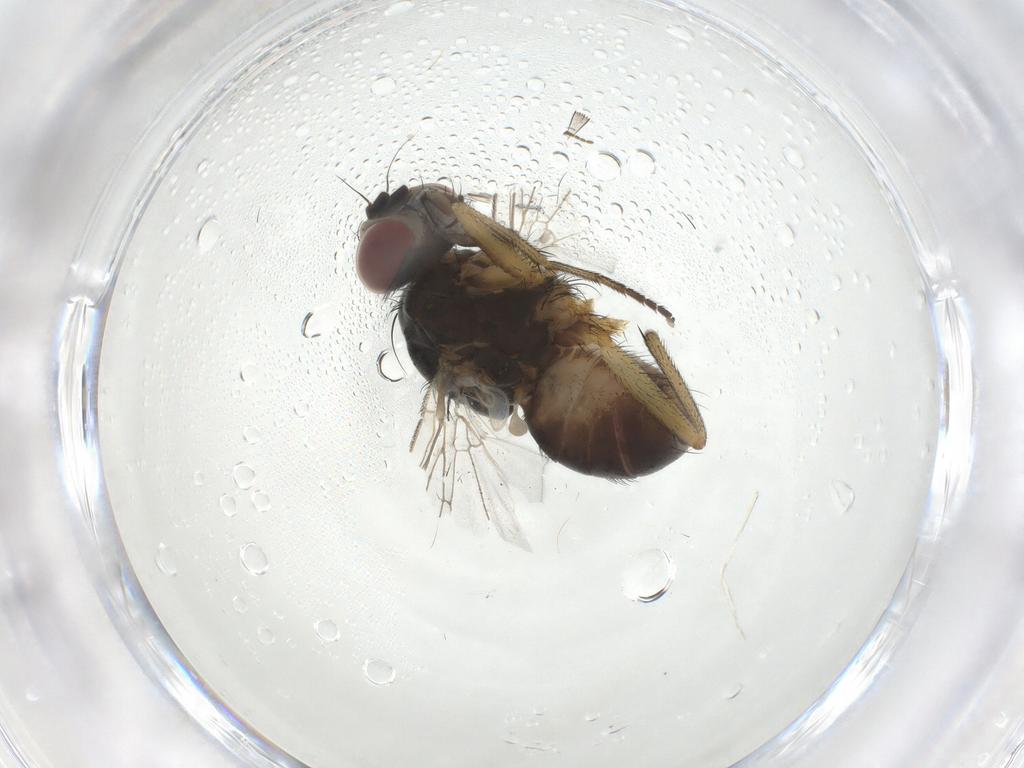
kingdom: Animalia
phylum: Arthropoda
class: Insecta
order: Diptera
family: Muscidae
